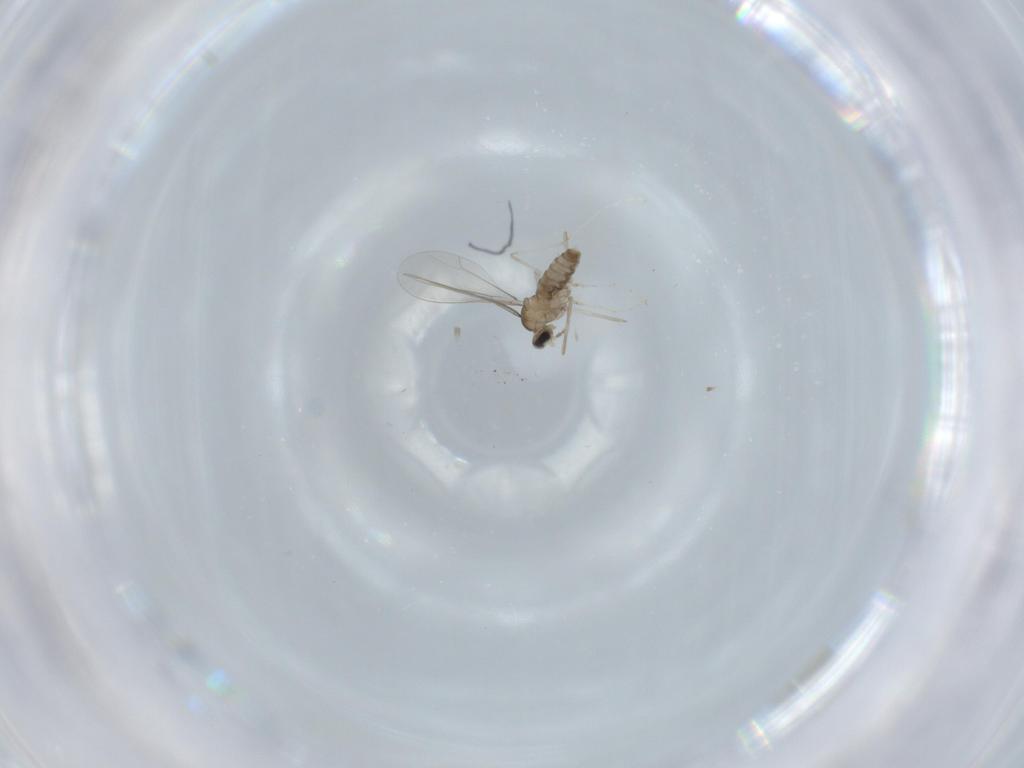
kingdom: Animalia
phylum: Arthropoda
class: Insecta
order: Diptera
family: Cecidomyiidae
